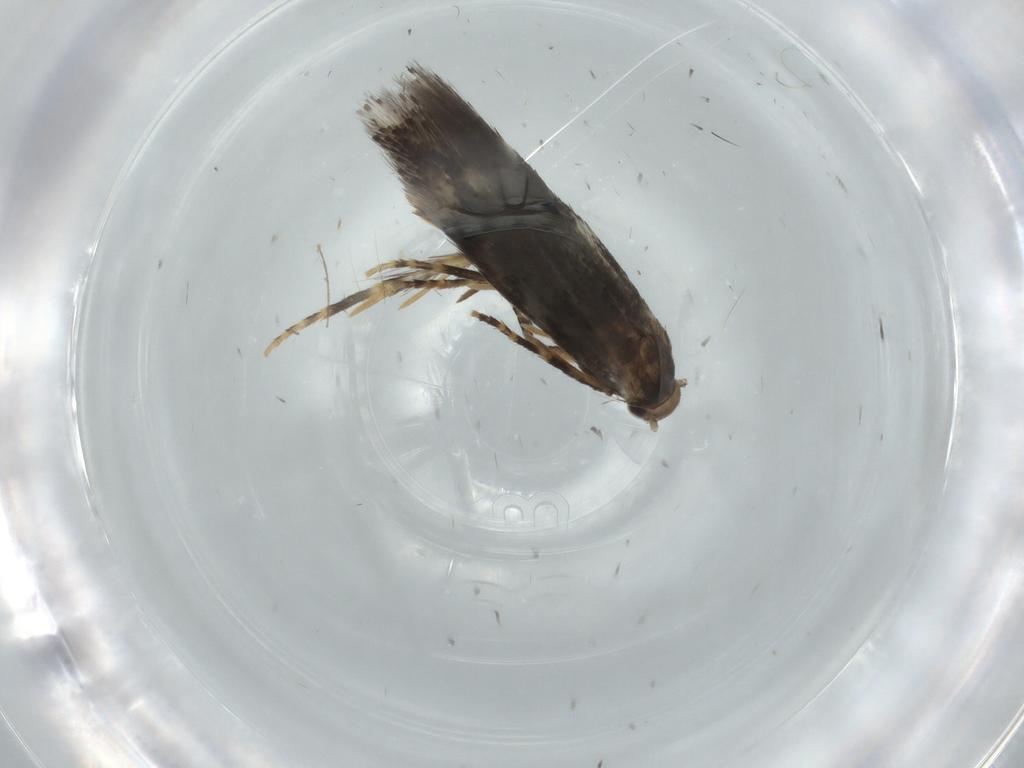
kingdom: Animalia
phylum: Arthropoda
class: Insecta
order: Lepidoptera
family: Elachistidae
